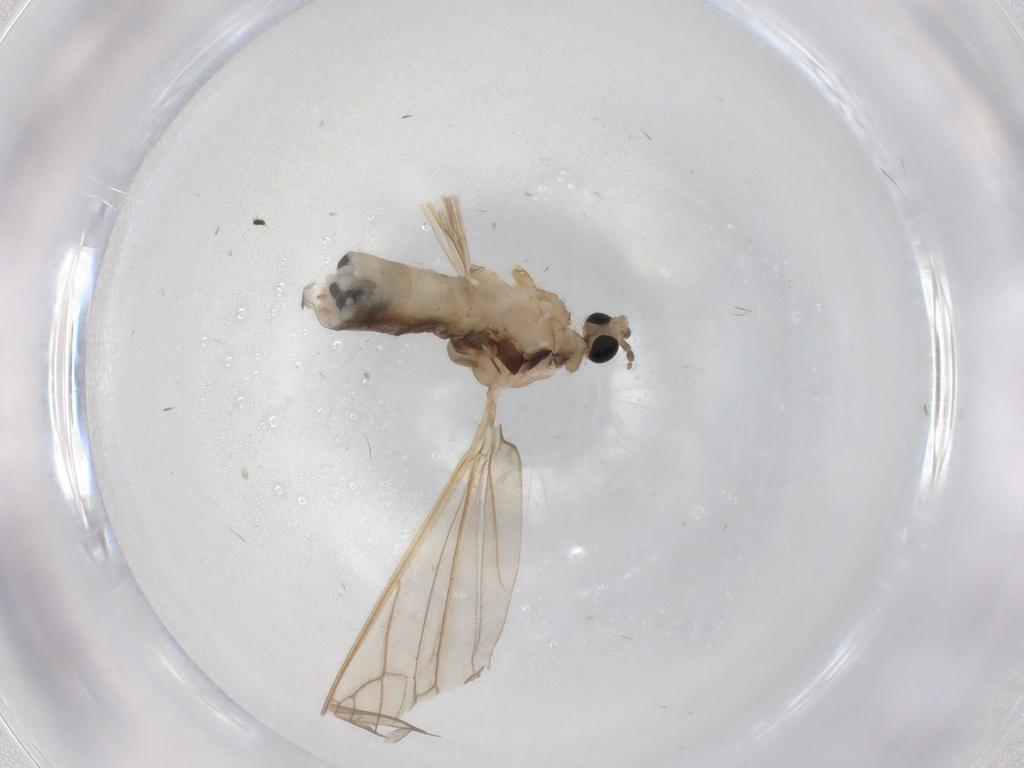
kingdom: Animalia
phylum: Arthropoda
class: Insecta
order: Diptera
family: Limoniidae
